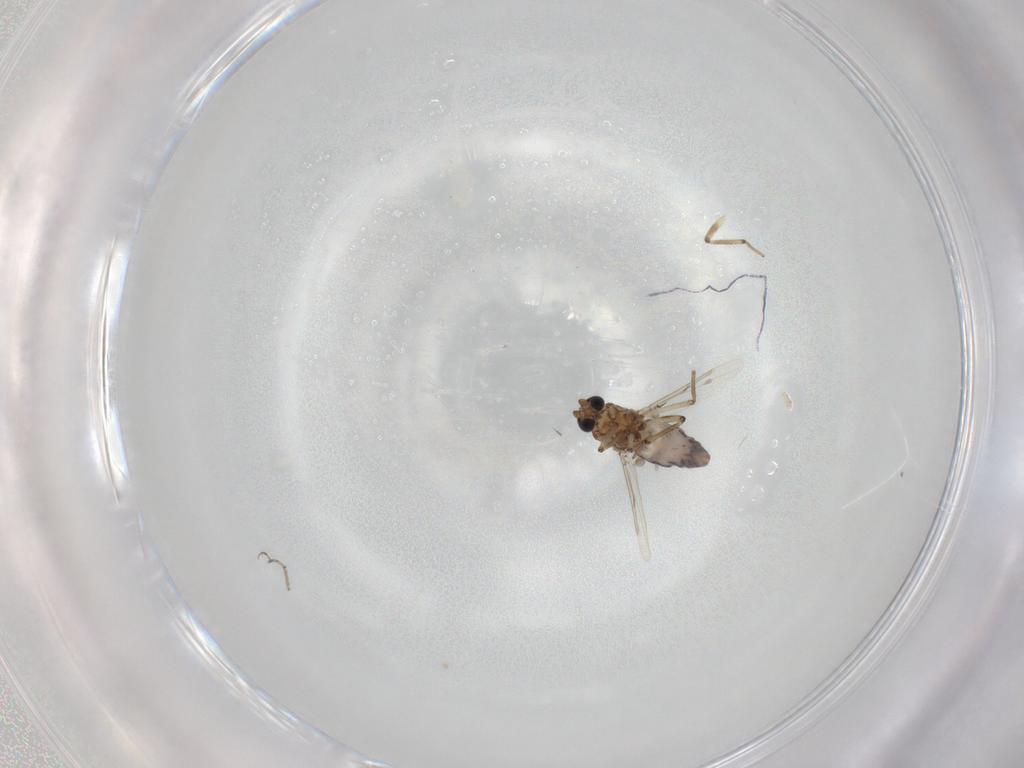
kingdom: Animalia
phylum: Arthropoda
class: Insecta
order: Diptera
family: Ceratopogonidae
